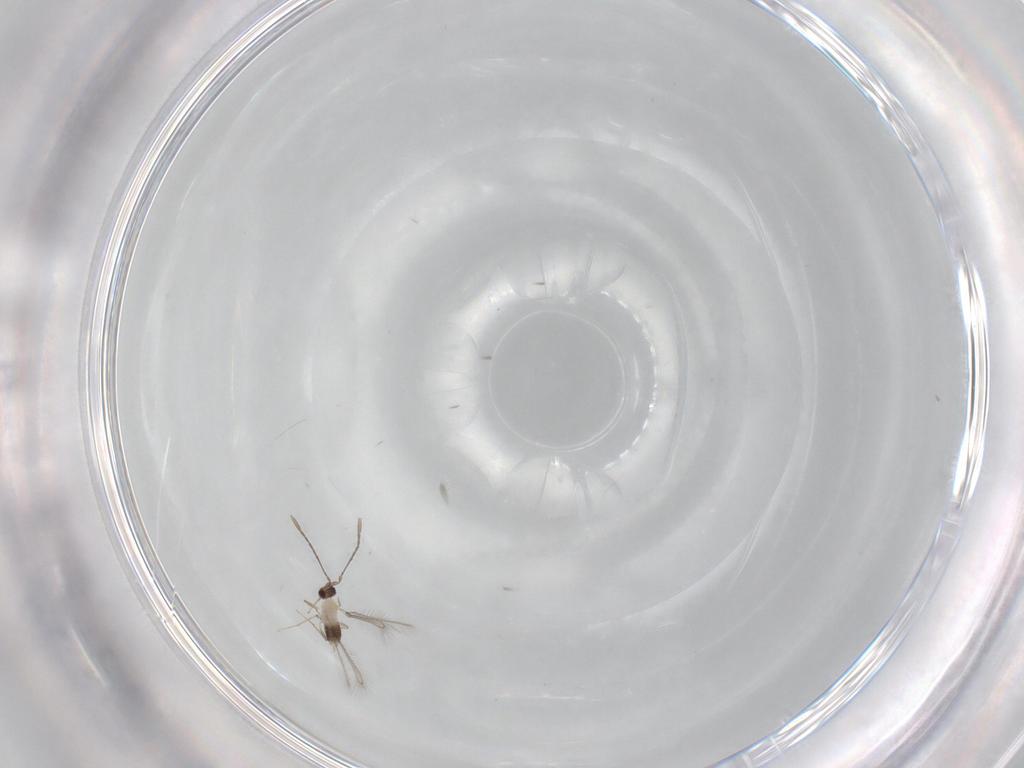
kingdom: Animalia
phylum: Arthropoda
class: Insecta
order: Hymenoptera
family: Mymaridae
